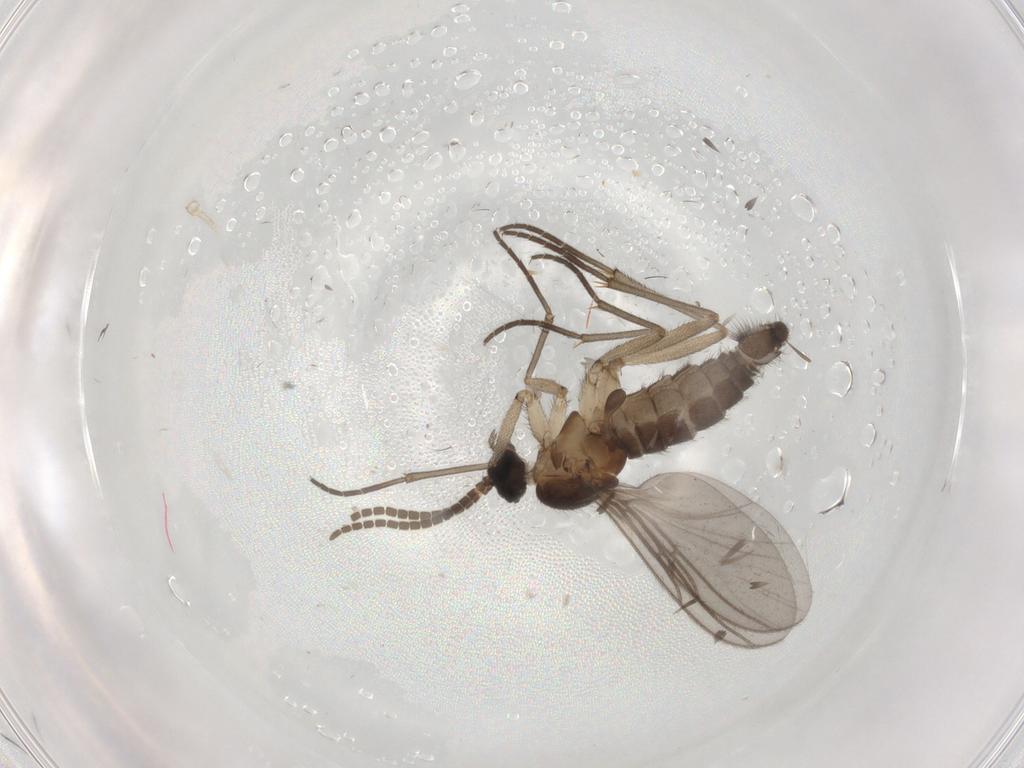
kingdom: Animalia
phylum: Arthropoda
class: Insecta
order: Diptera
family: Sciaridae
